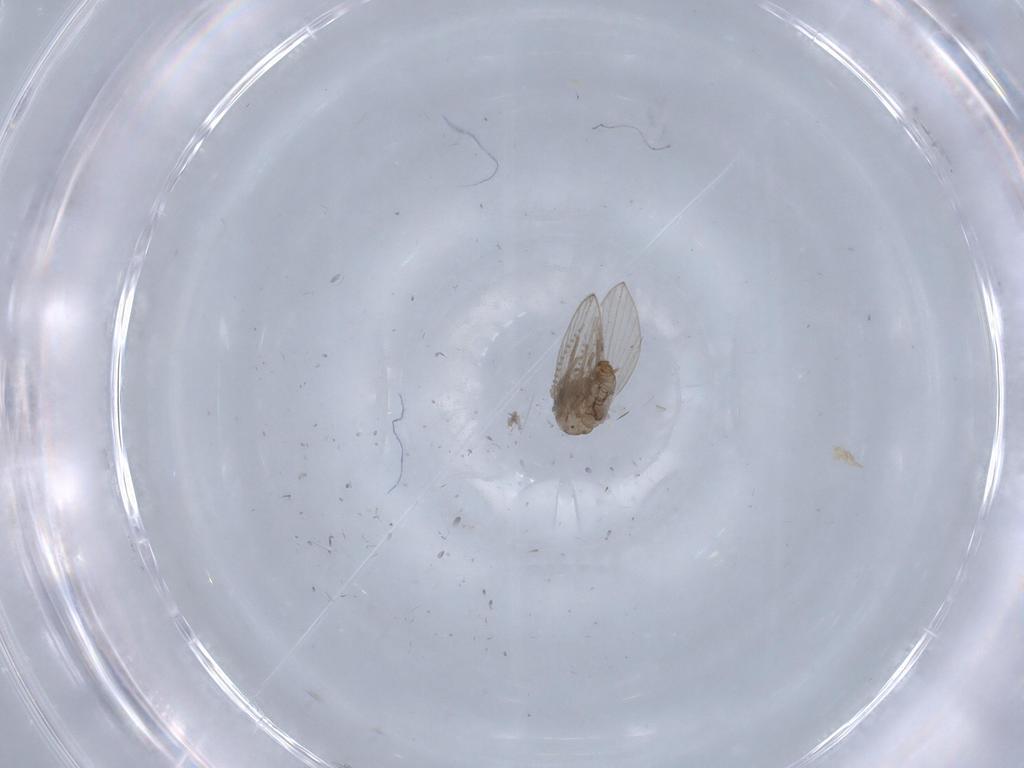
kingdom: Animalia
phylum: Arthropoda
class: Insecta
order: Diptera
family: Psychodidae
